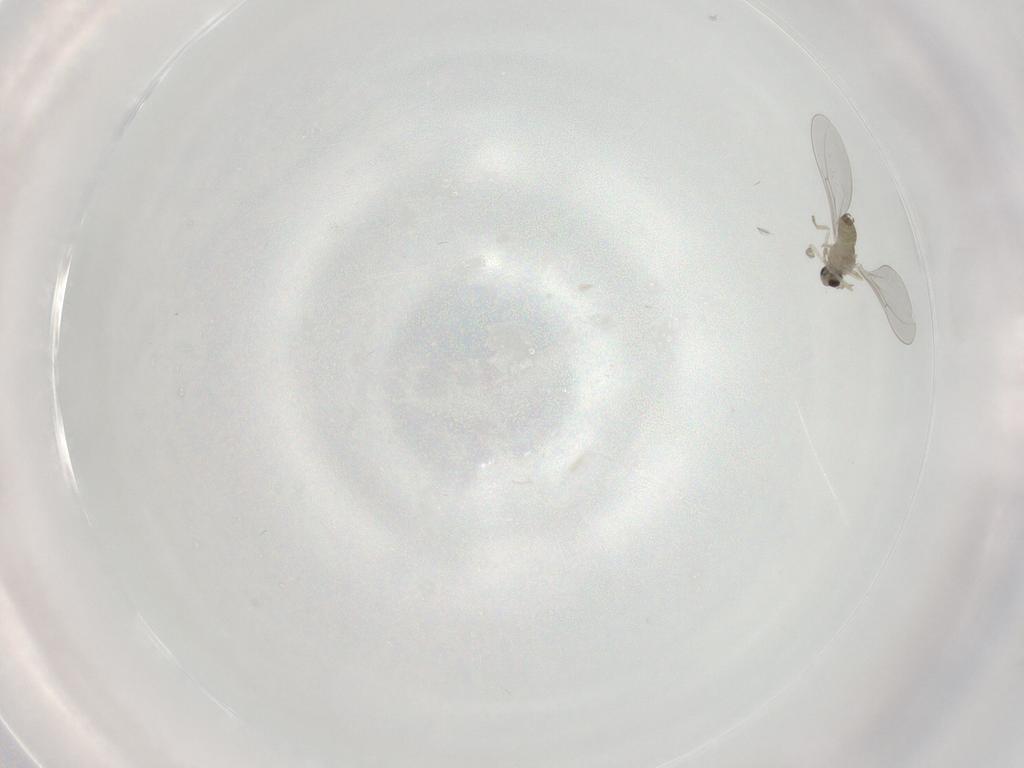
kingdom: Animalia
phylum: Arthropoda
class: Insecta
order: Diptera
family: Cecidomyiidae
